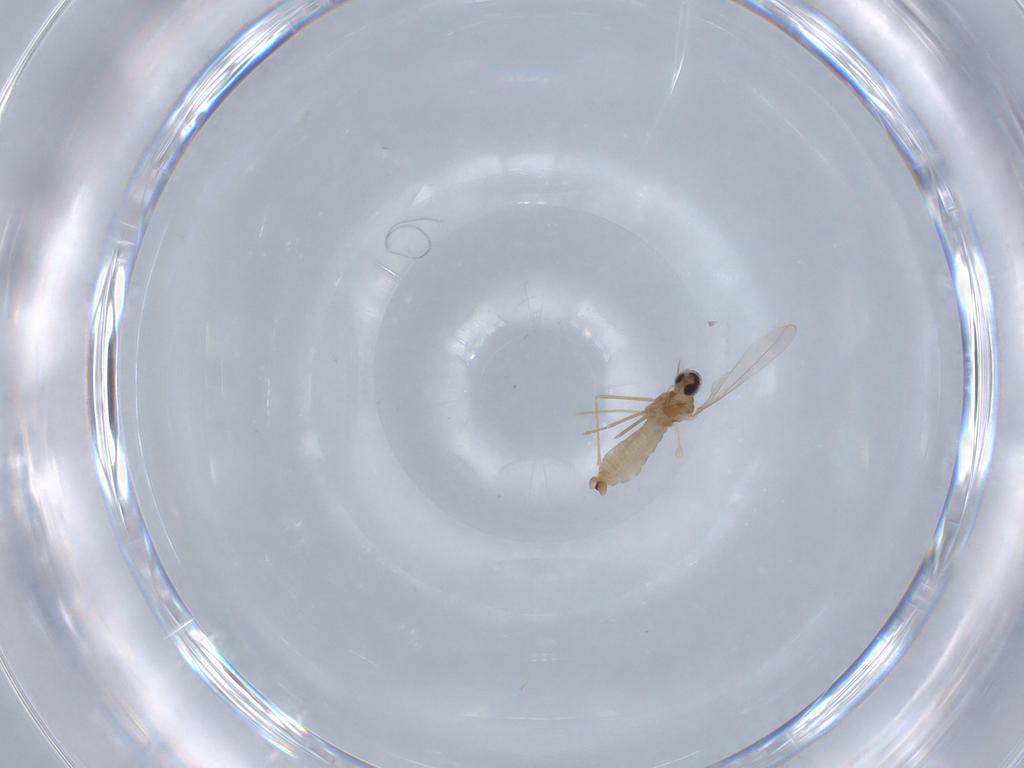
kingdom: Animalia
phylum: Arthropoda
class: Insecta
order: Diptera
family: Cecidomyiidae
